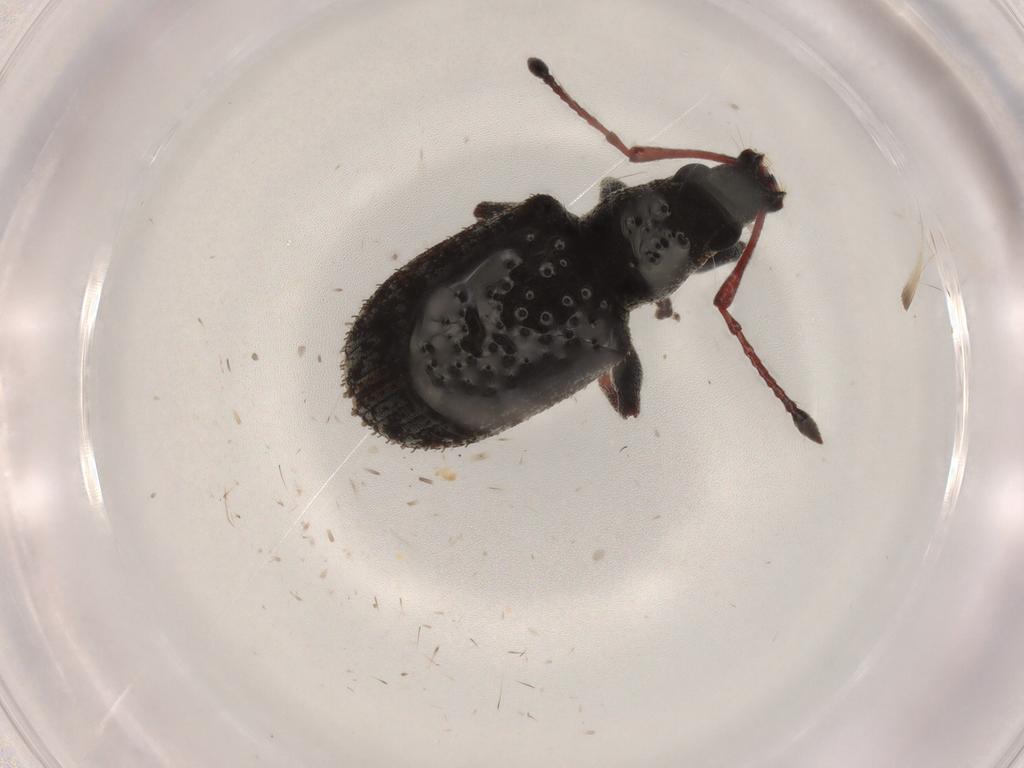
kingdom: Animalia
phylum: Arthropoda
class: Insecta
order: Coleoptera
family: Curculionidae
